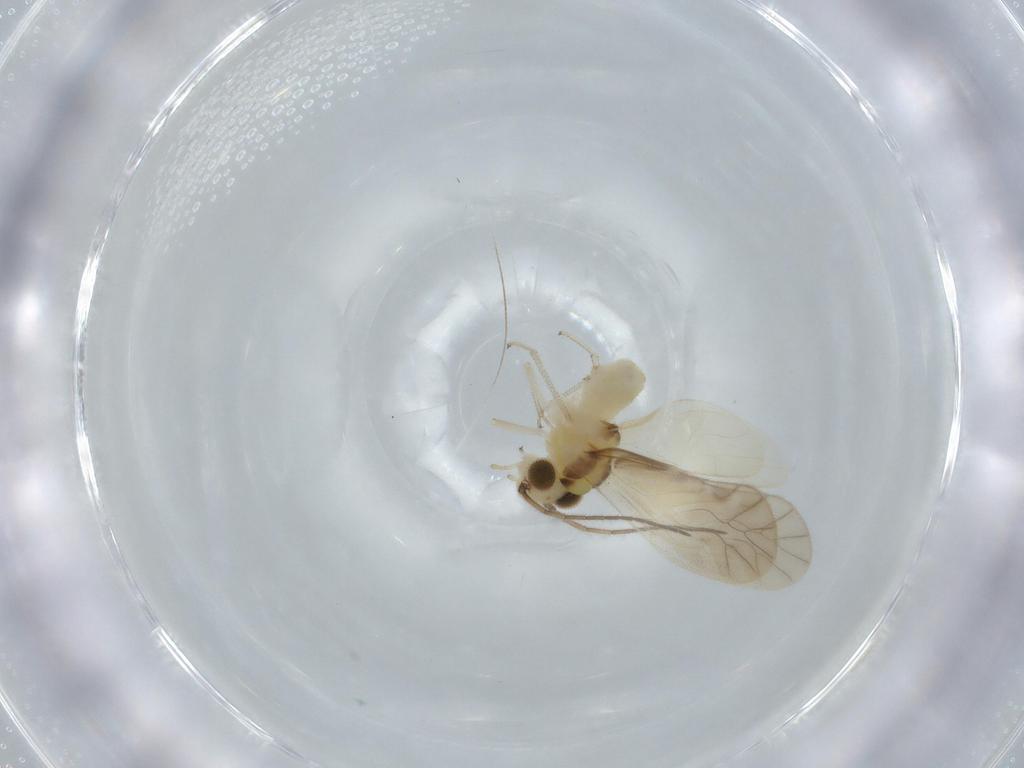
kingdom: Animalia
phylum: Arthropoda
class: Insecta
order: Psocodea
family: Caeciliusidae
